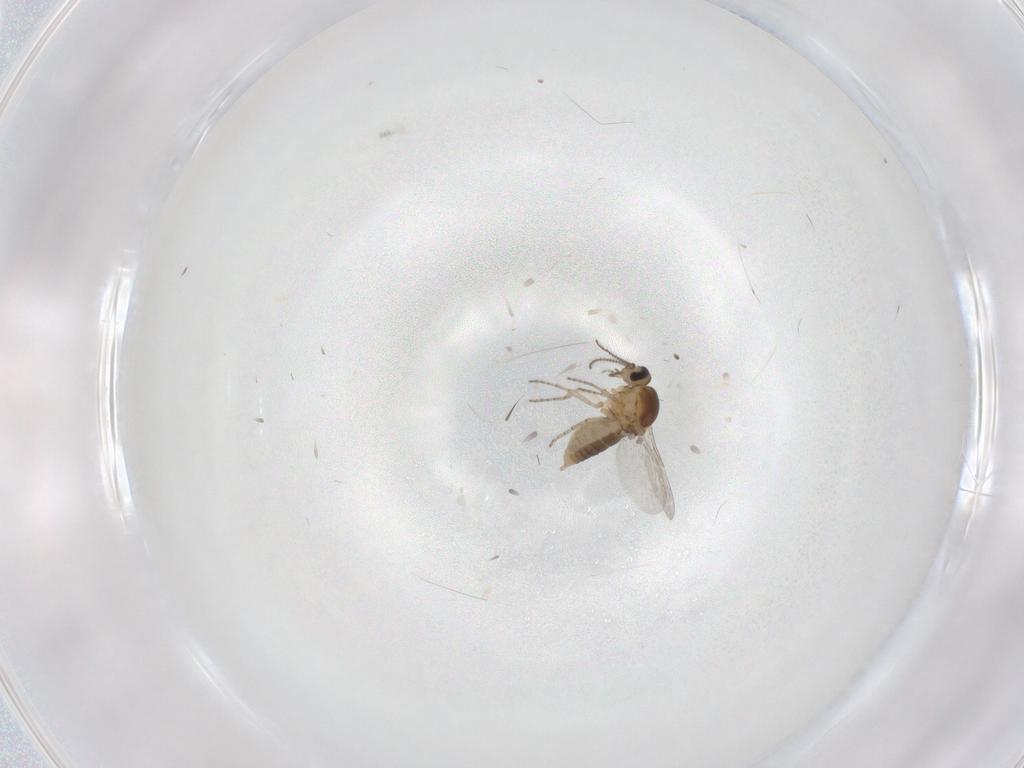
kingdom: Animalia
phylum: Arthropoda
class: Insecta
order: Diptera
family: Ceratopogonidae
